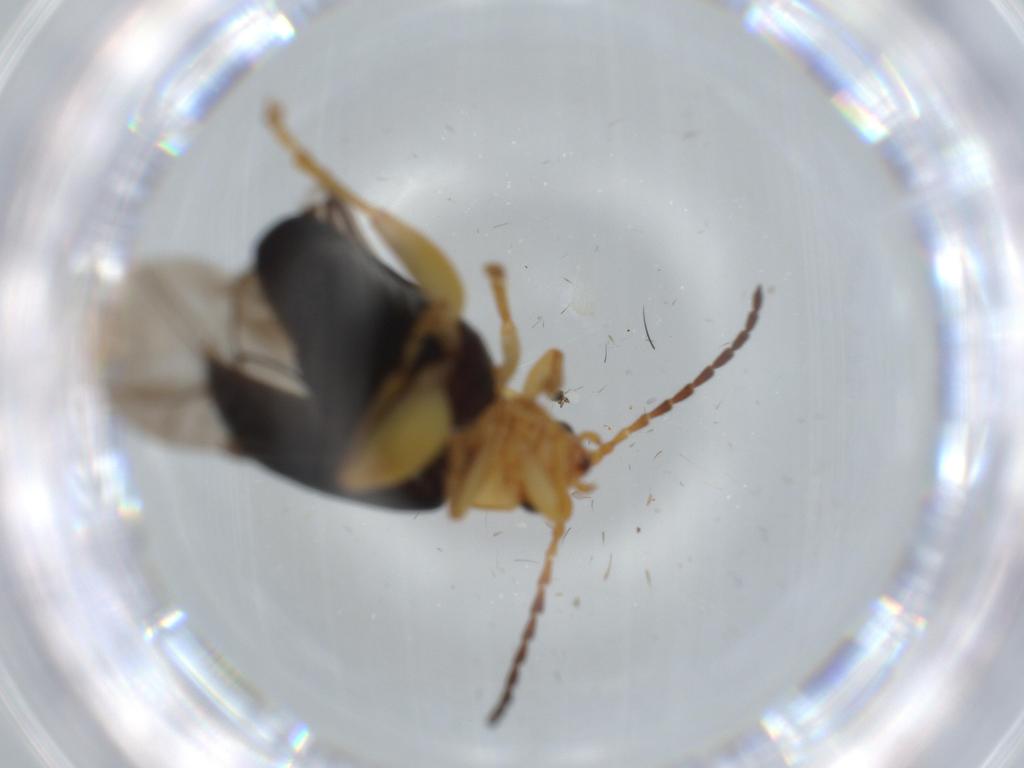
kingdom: Animalia
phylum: Arthropoda
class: Insecta
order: Coleoptera
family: Chrysomelidae
